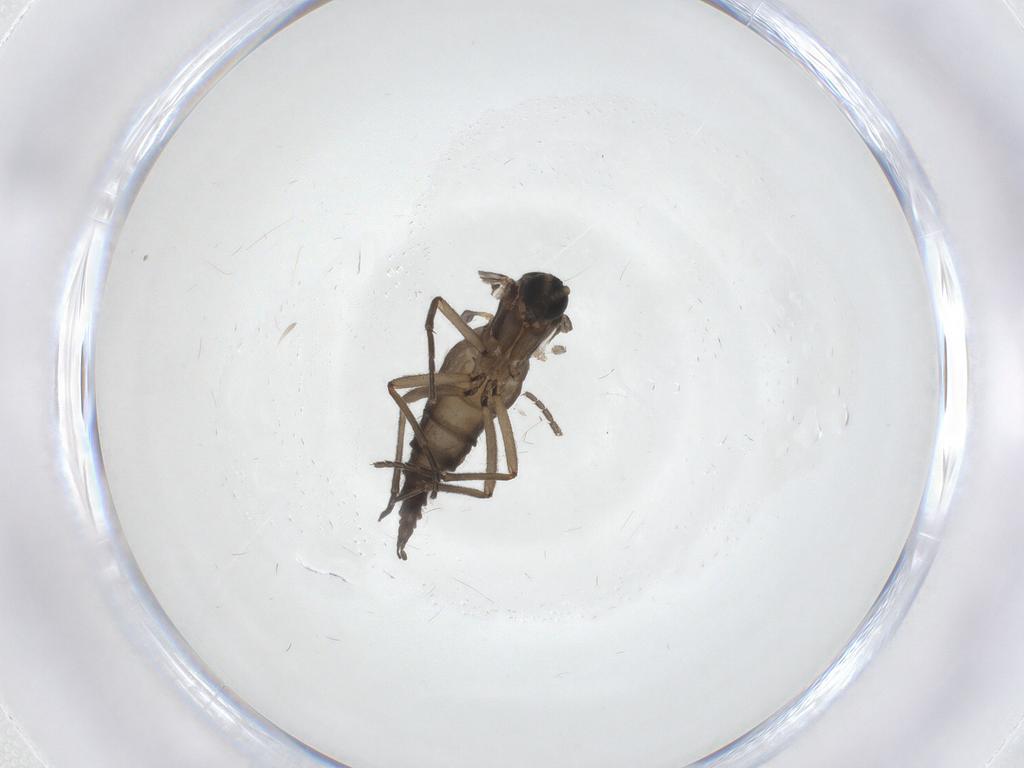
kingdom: Animalia
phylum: Arthropoda
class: Insecta
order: Diptera
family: Sciaridae
